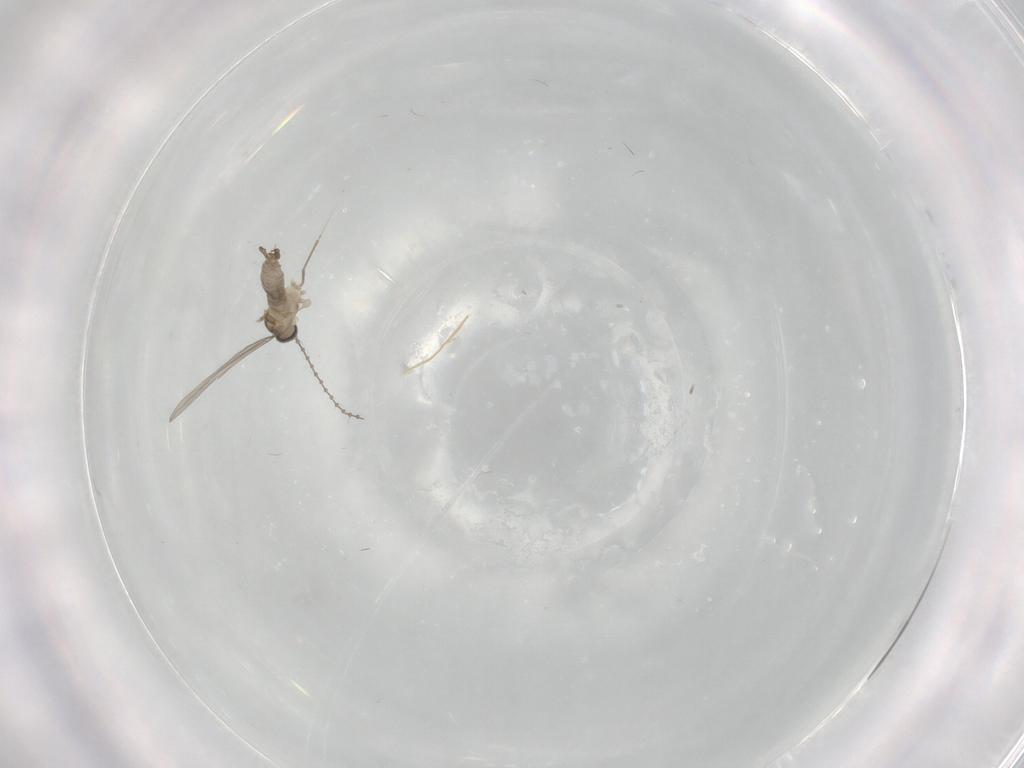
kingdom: Animalia
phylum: Arthropoda
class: Insecta
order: Diptera
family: Cecidomyiidae
